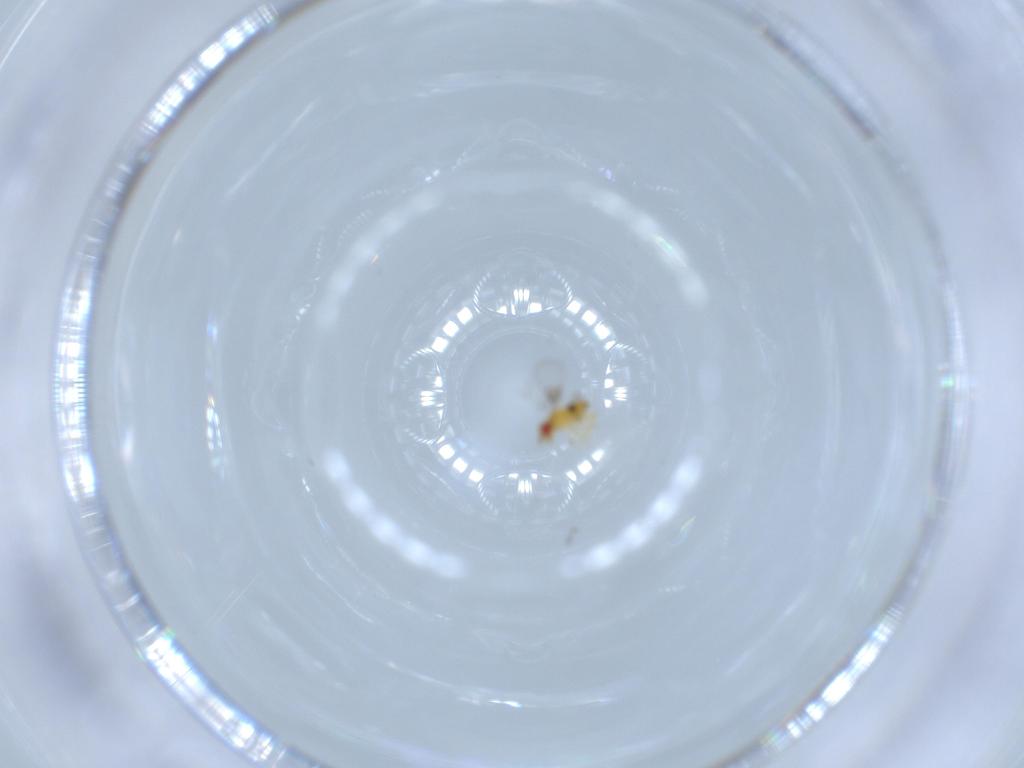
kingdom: Animalia
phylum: Arthropoda
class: Insecta
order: Hymenoptera
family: Trichogrammatidae
